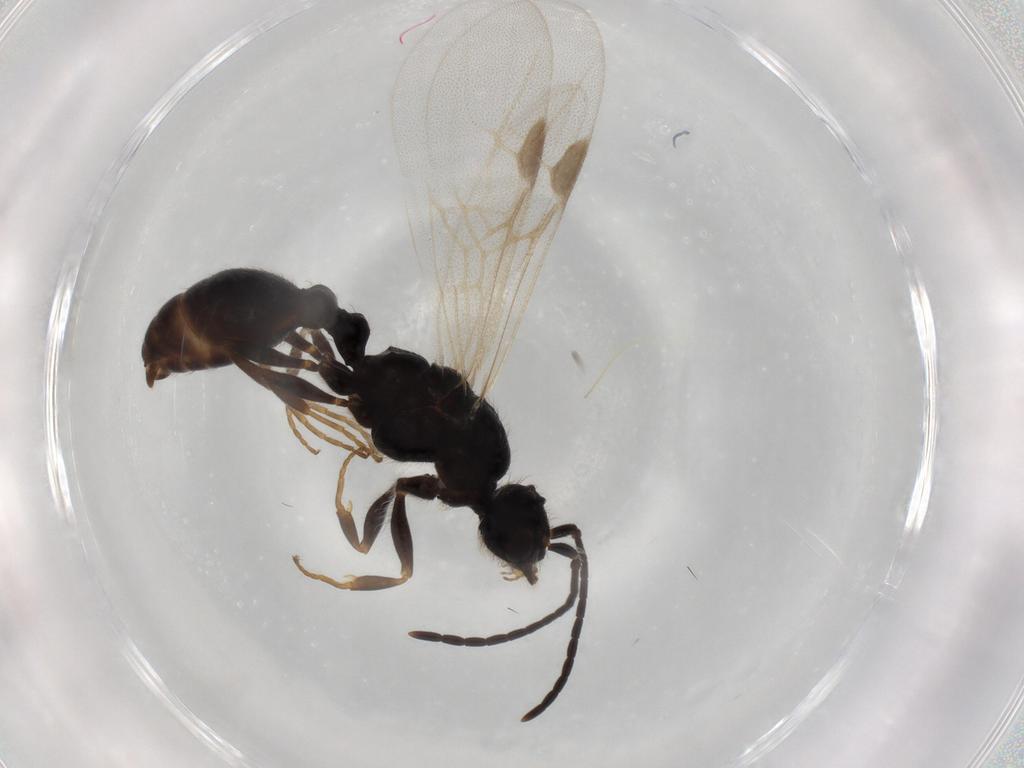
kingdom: Animalia
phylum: Arthropoda
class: Insecta
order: Hymenoptera
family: Formicidae
